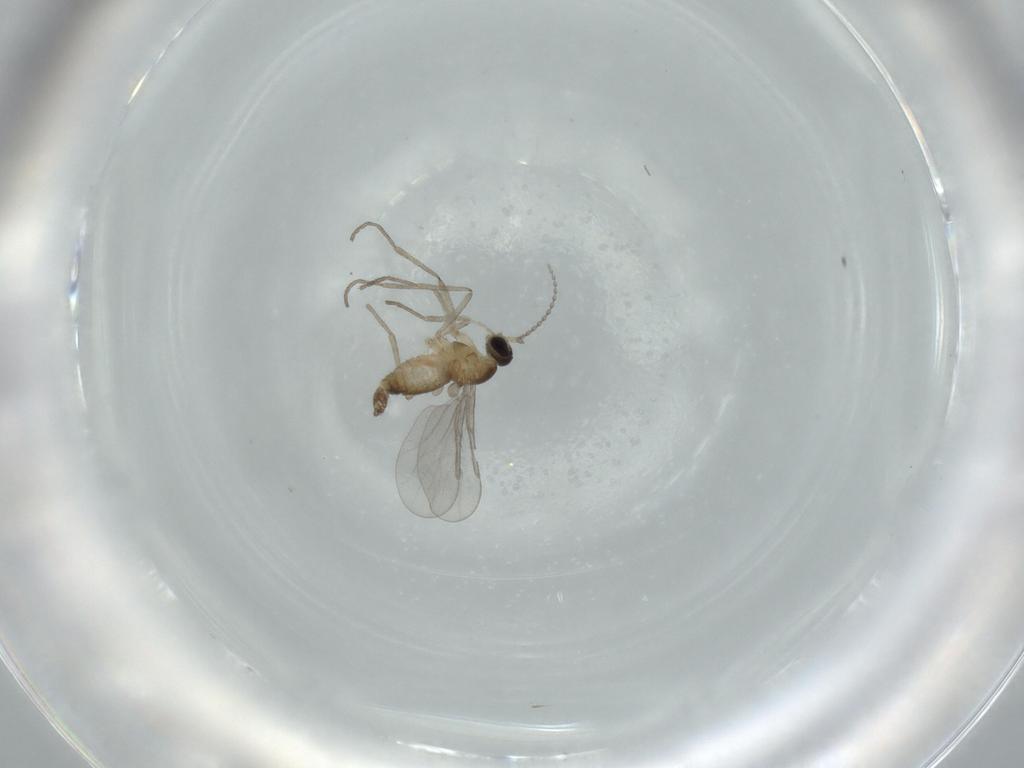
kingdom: Animalia
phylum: Arthropoda
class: Insecta
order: Diptera
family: Cecidomyiidae
